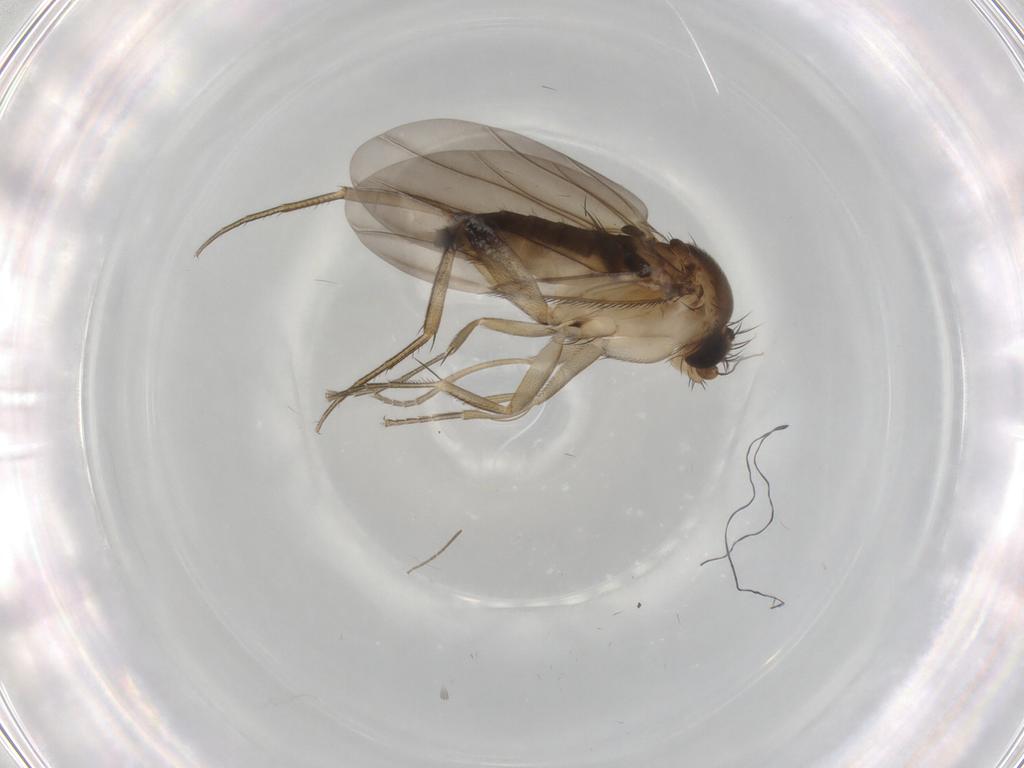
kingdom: Animalia
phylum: Arthropoda
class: Insecta
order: Diptera
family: Phoridae
